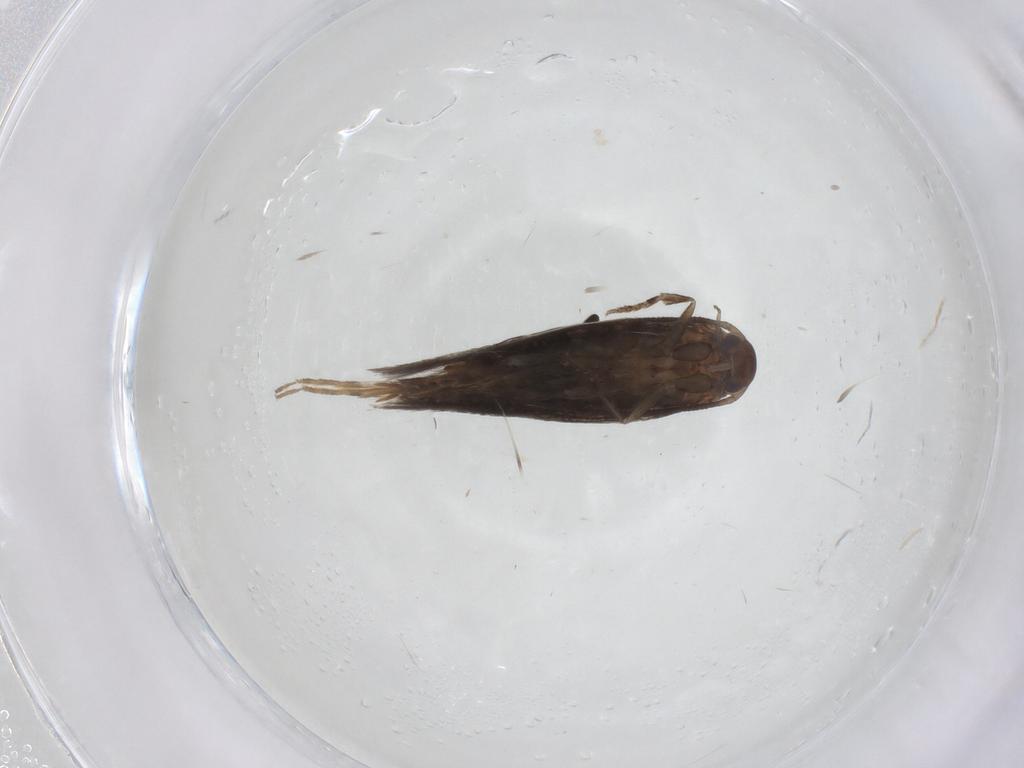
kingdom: Animalia
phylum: Arthropoda
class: Insecta
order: Lepidoptera
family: Elachistidae
